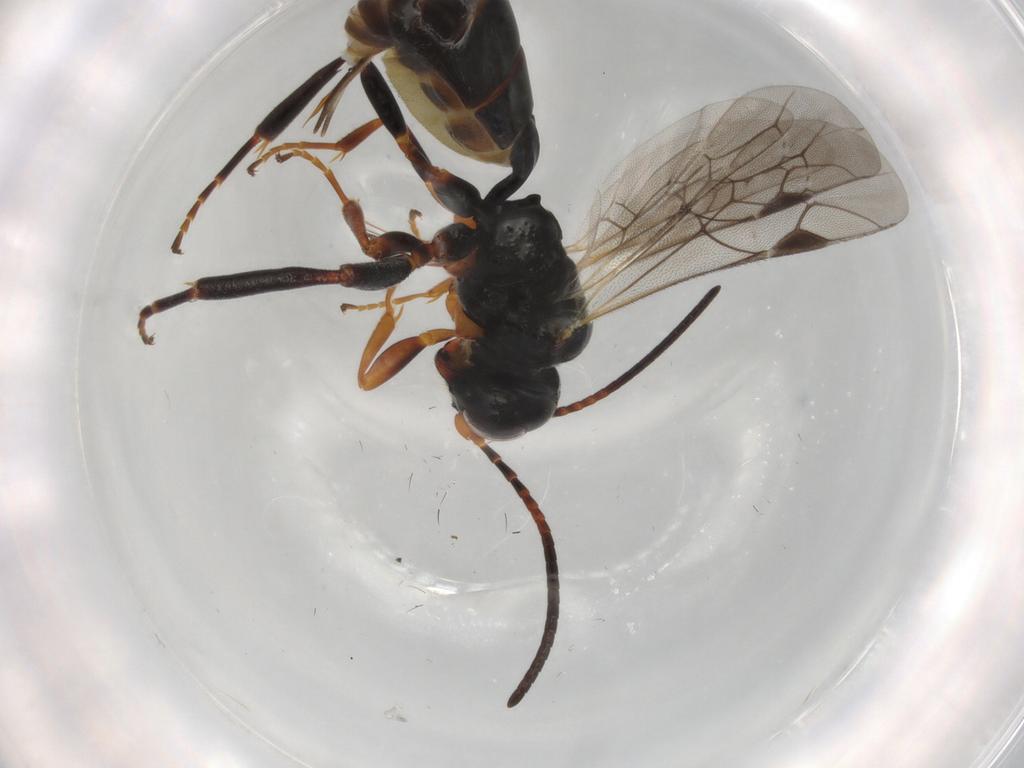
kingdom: Animalia
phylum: Arthropoda
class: Insecta
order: Hymenoptera
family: Ichneumonidae
